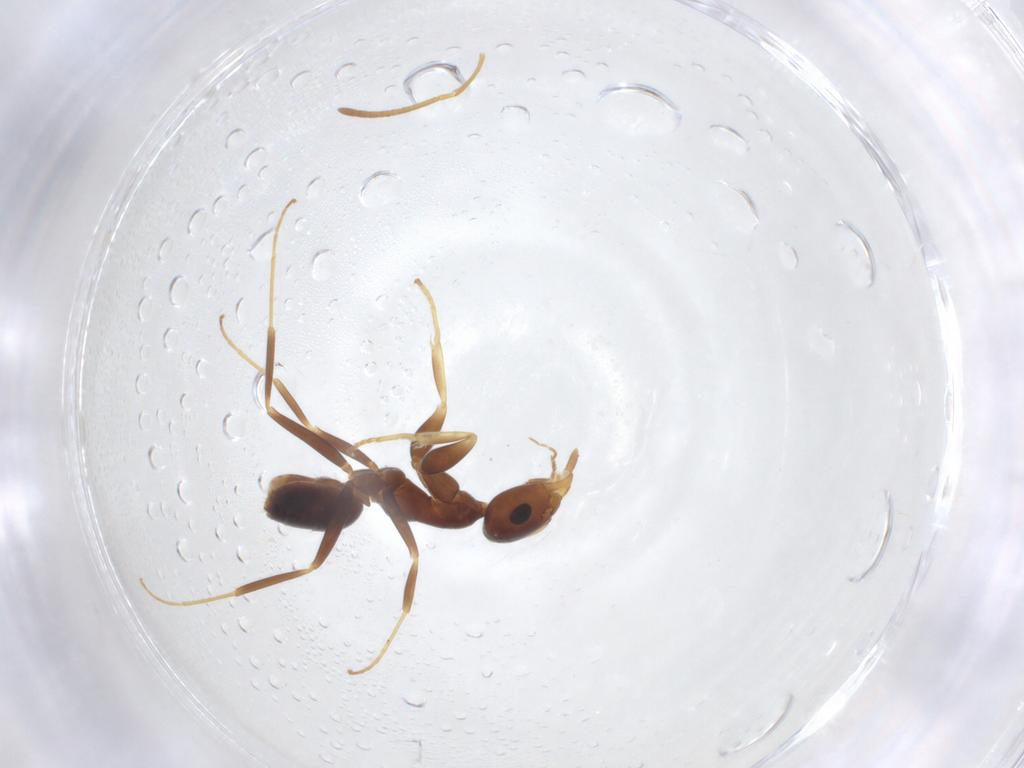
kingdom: Animalia
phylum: Arthropoda
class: Insecta
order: Hymenoptera
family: Formicidae
